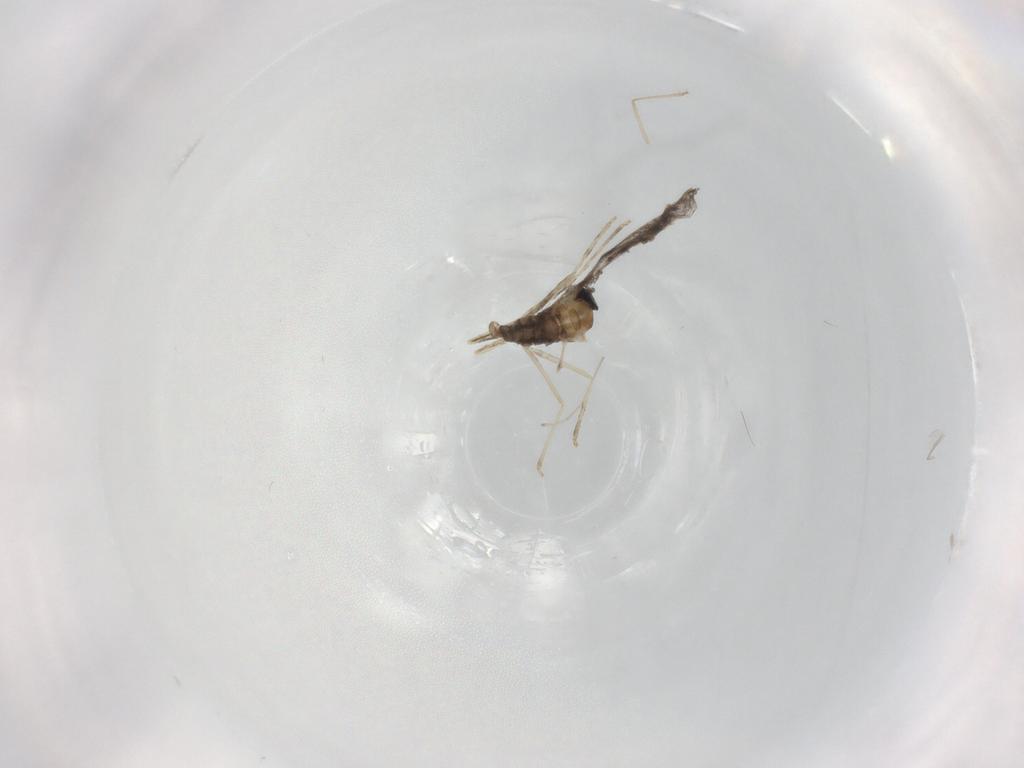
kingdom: Animalia
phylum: Arthropoda
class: Insecta
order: Diptera
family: Cecidomyiidae
